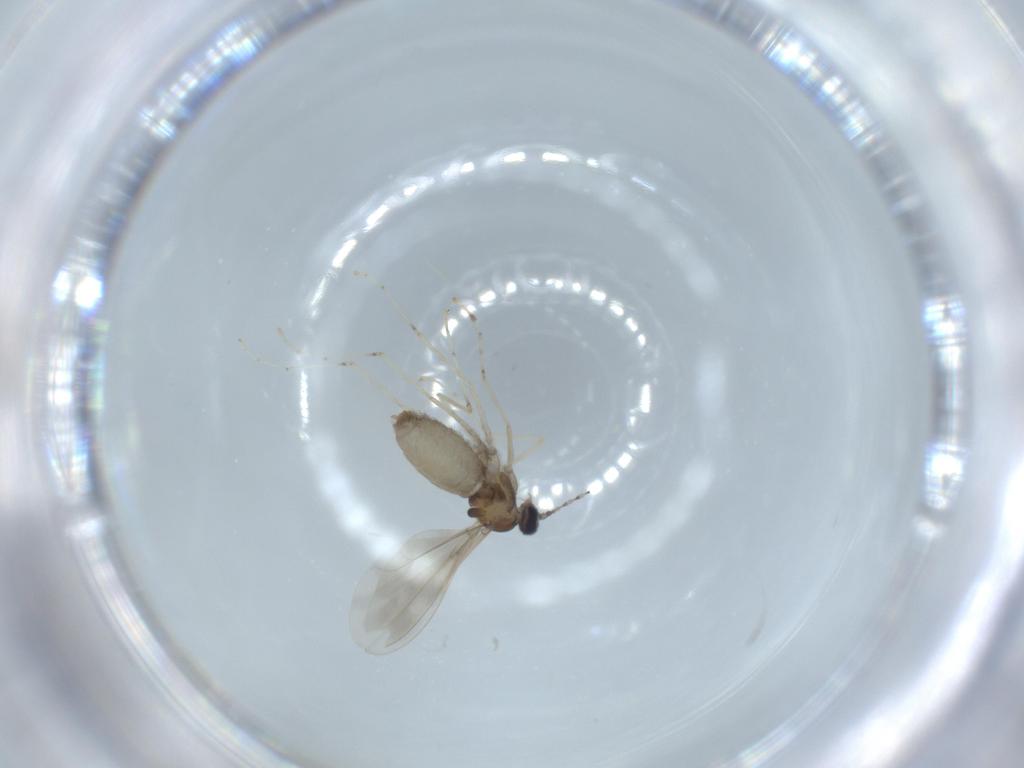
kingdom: Animalia
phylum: Arthropoda
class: Insecta
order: Diptera
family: Cecidomyiidae
